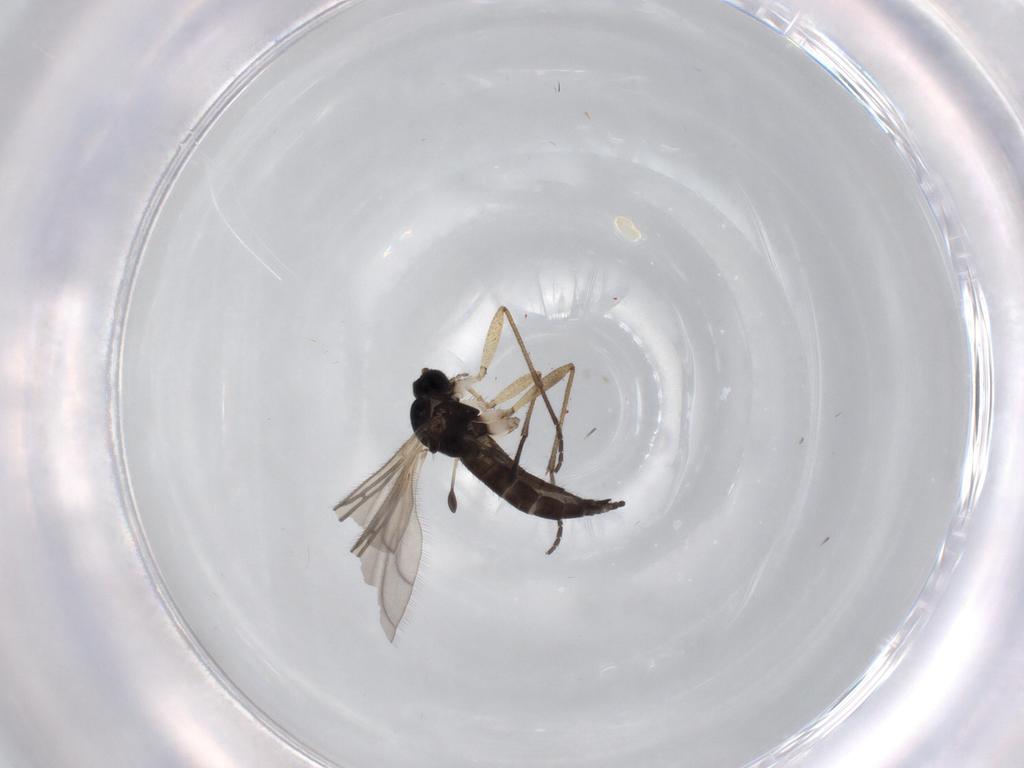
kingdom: Animalia
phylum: Arthropoda
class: Insecta
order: Diptera
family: Sciaridae
